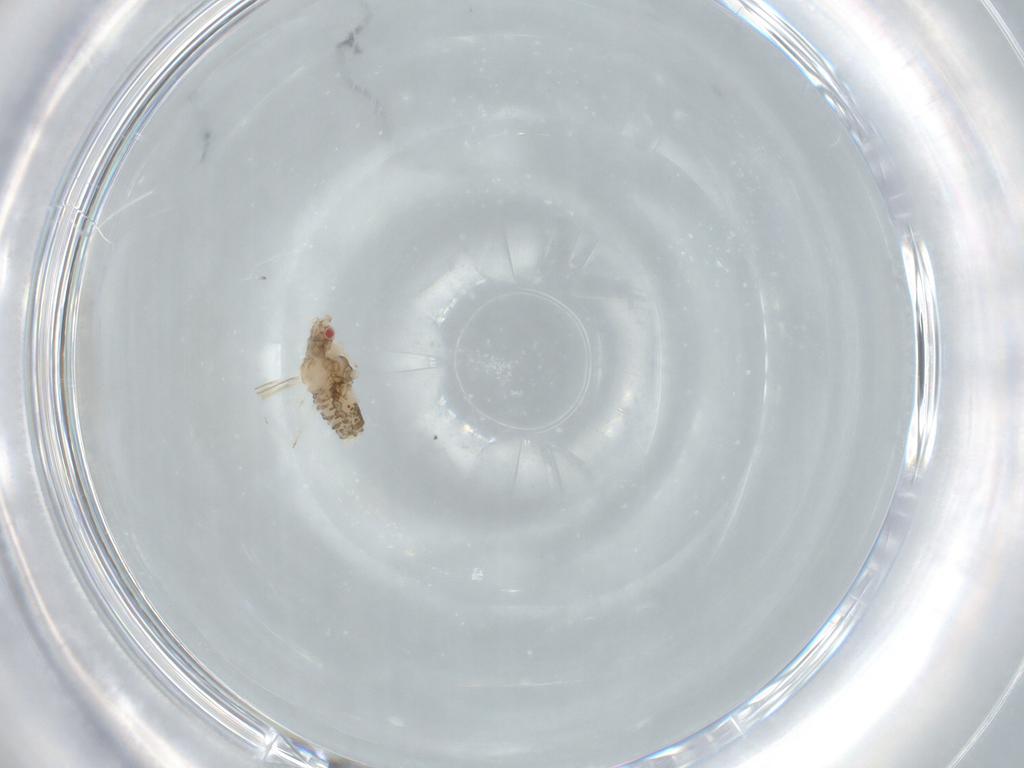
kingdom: Animalia
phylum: Arthropoda
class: Insecta
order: Hemiptera
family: Aphididae
